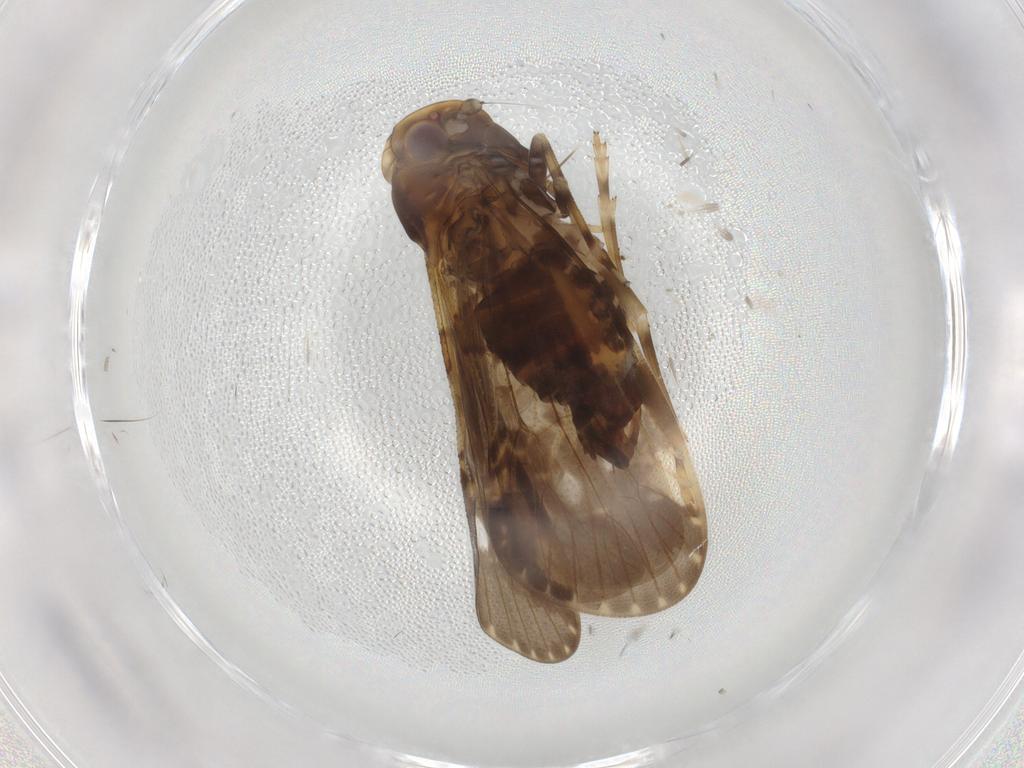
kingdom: Animalia
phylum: Arthropoda
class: Insecta
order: Hemiptera
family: Cixiidae
